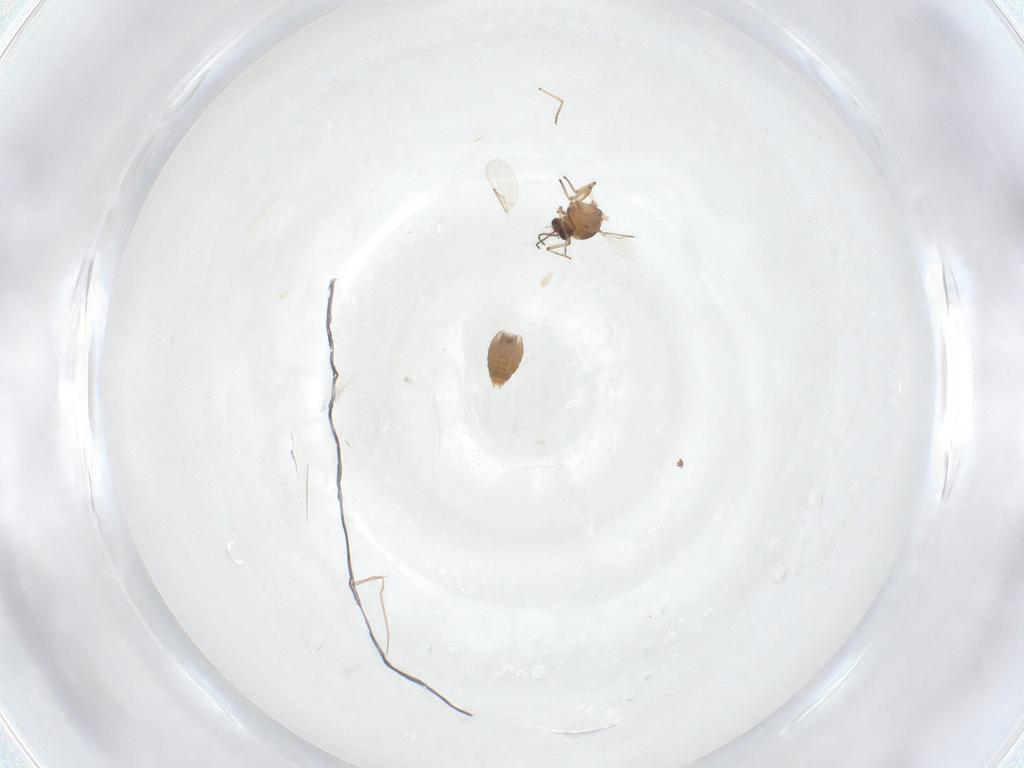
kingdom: Animalia
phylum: Arthropoda
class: Insecta
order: Diptera
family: Ceratopogonidae
